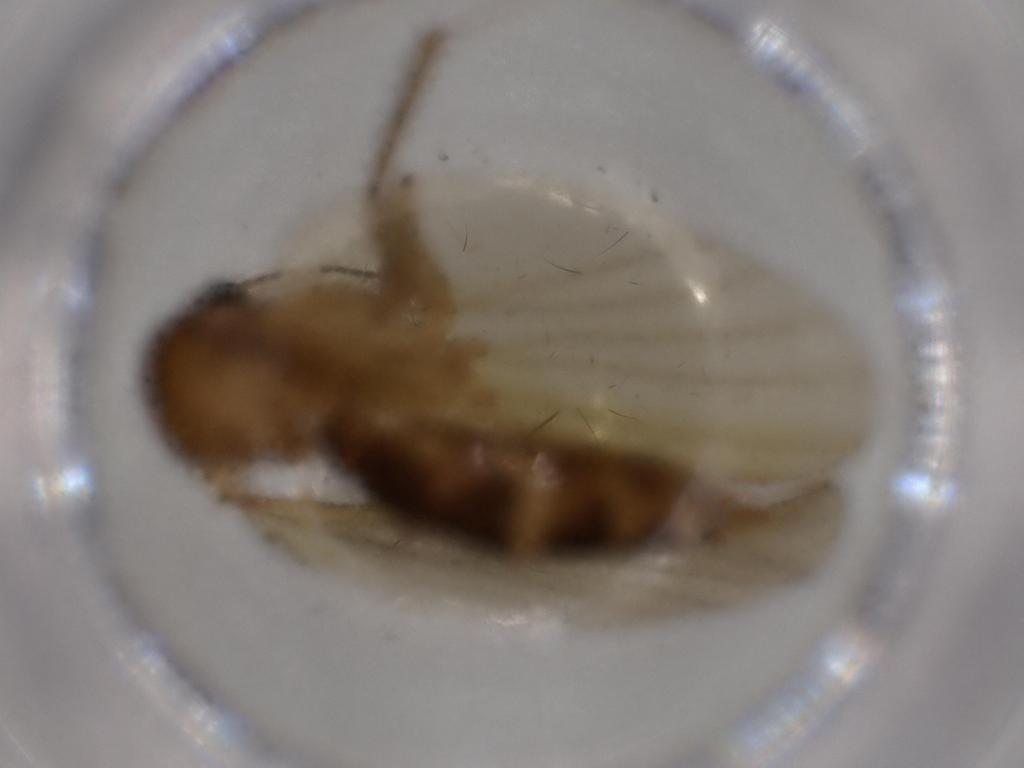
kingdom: Animalia
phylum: Arthropoda
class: Insecta
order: Diptera
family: Mycetophilidae
